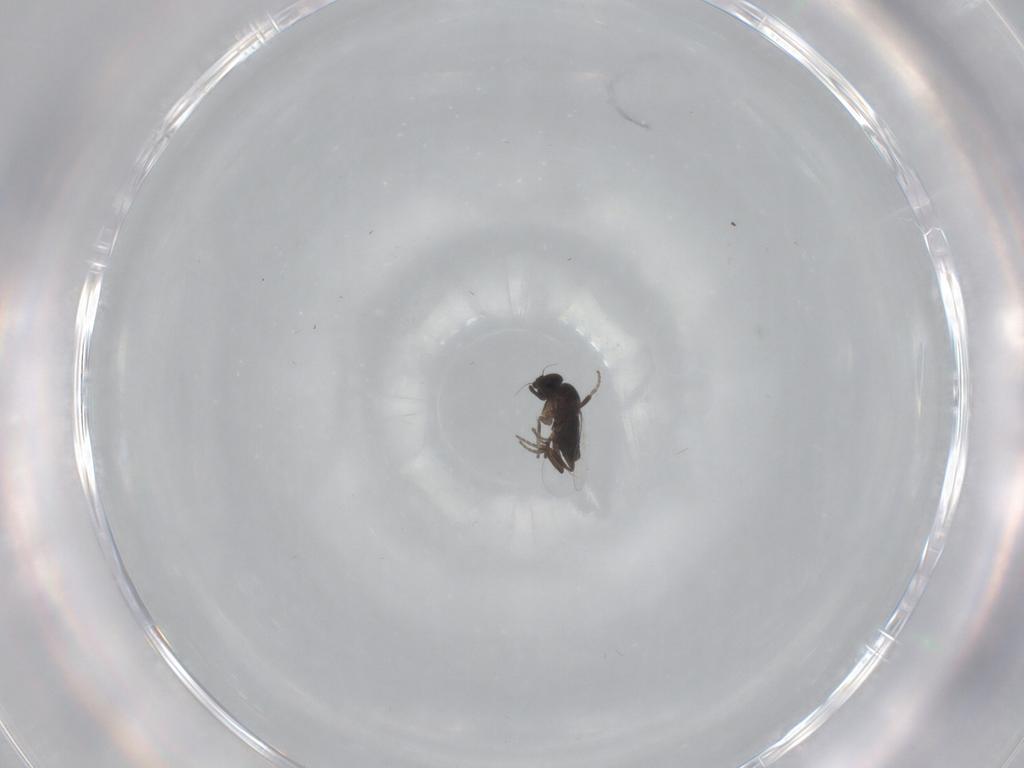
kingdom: Animalia
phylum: Arthropoda
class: Insecta
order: Diptera
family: Phoridae
